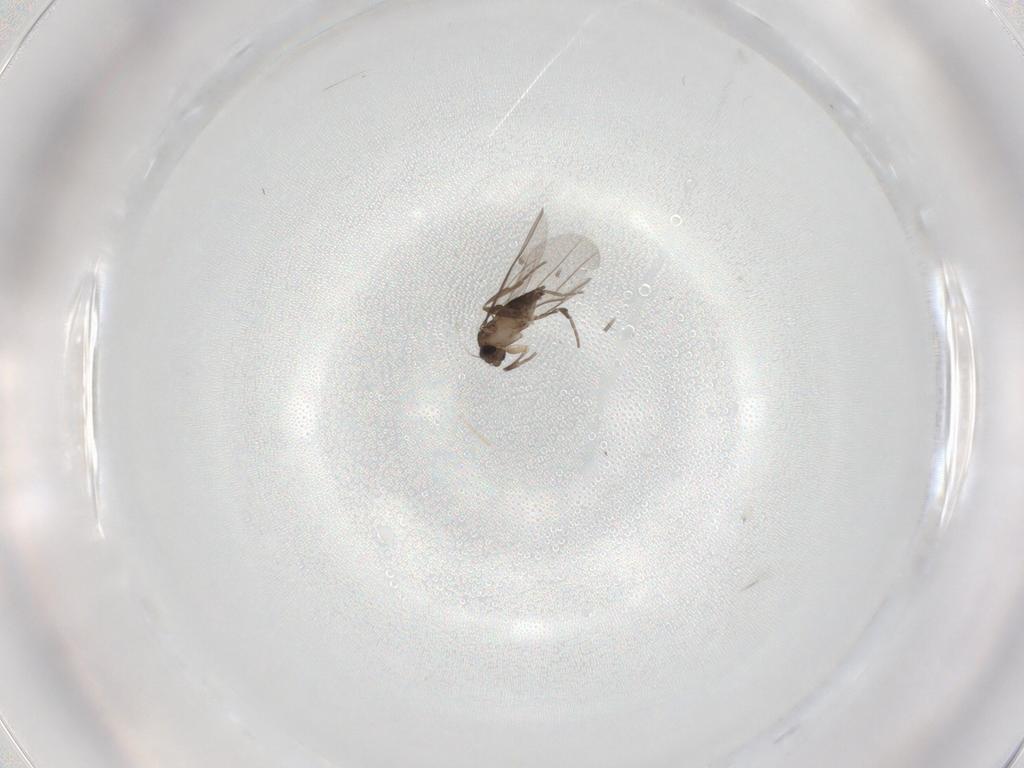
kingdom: Animalia
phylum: Arthropoda
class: Insecta
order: Diptera
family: Phoridae
